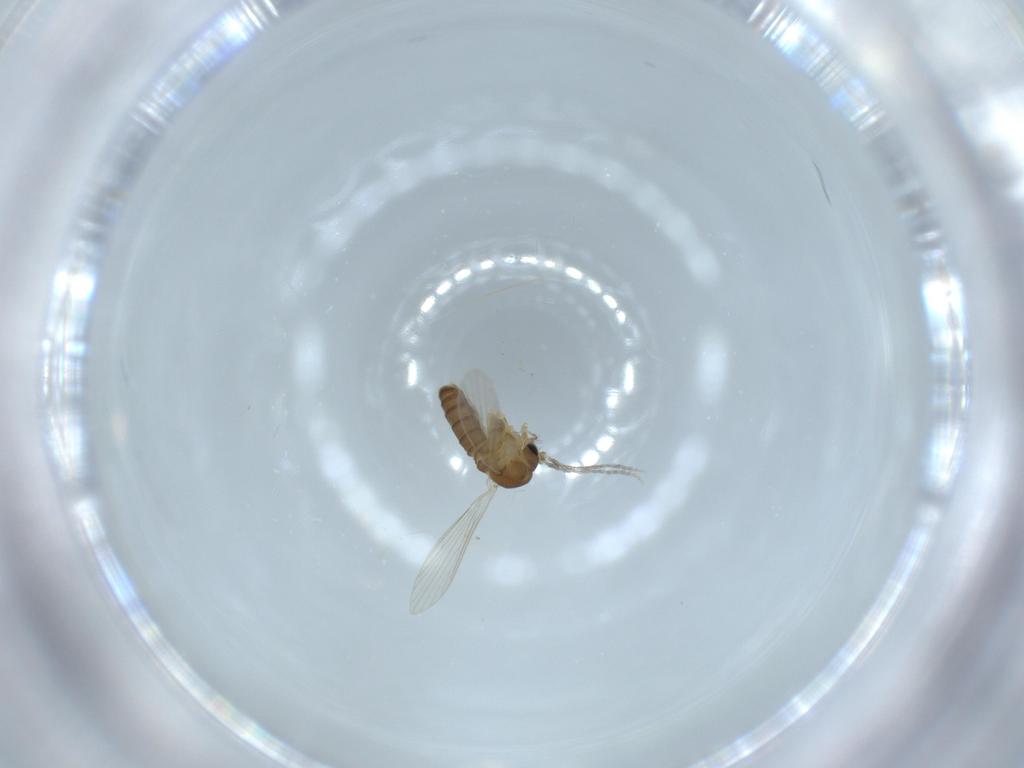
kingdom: Animalia
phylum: Arthropoda
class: Insecta
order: Diptera
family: Psychodidae
